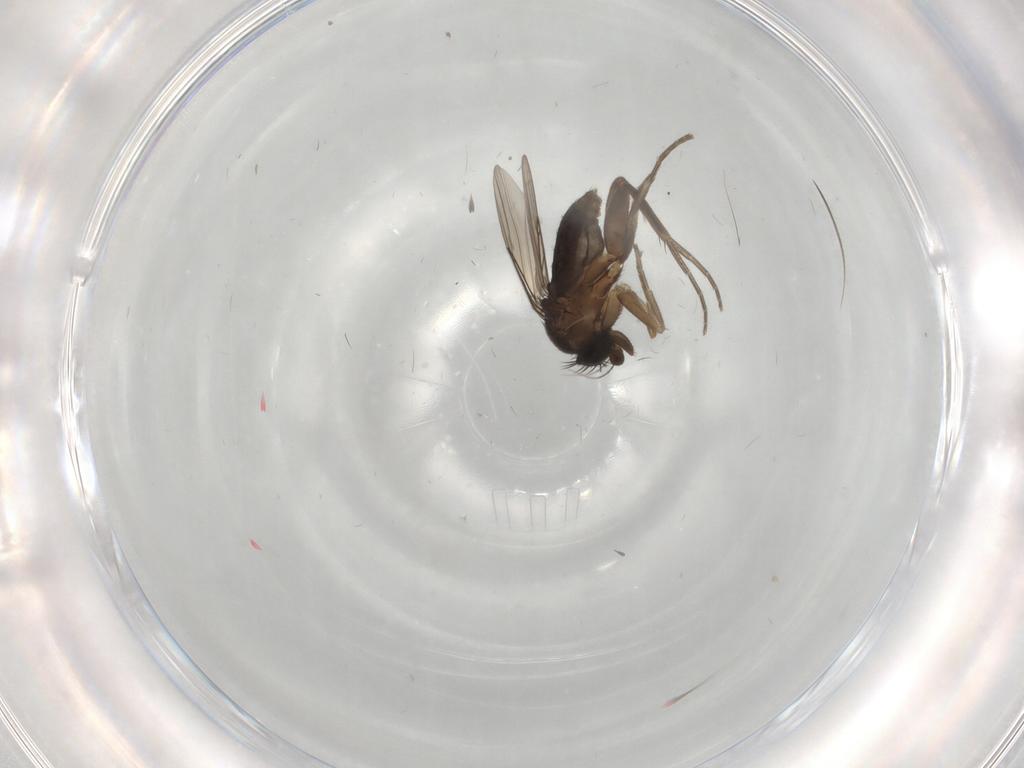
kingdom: Animalia
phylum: Arthropoda
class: Insecta
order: Diptera
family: Phoridae
